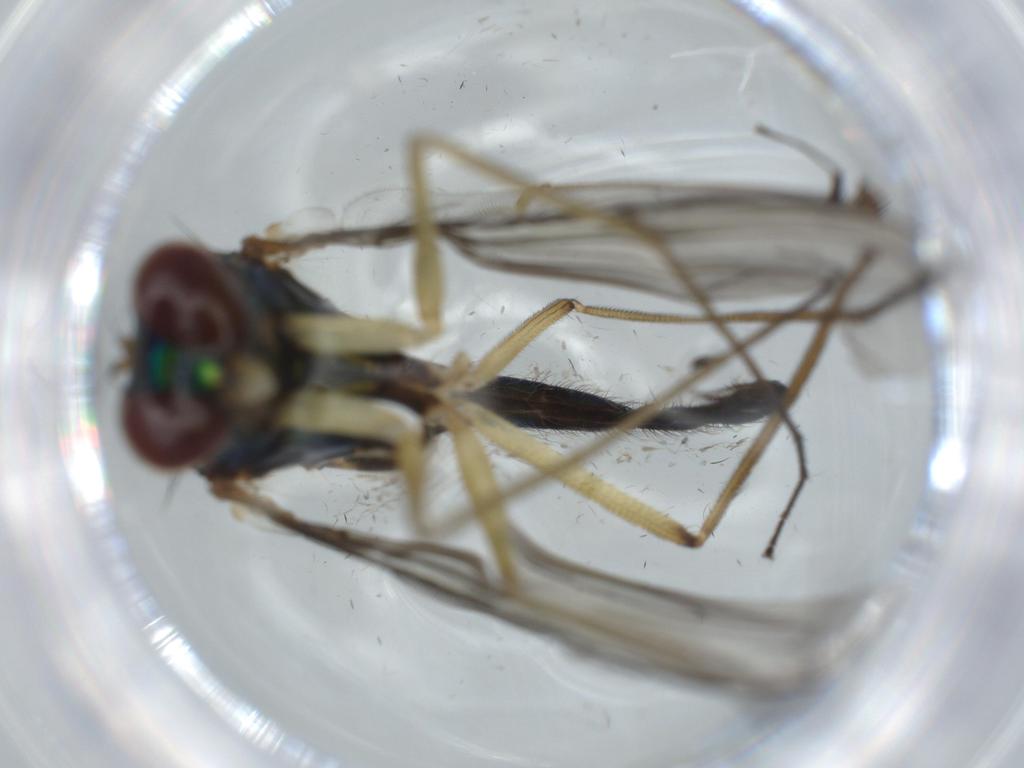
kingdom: Animalia
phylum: Arthropoda
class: Insecta
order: Diptera
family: Dolichopodidae
